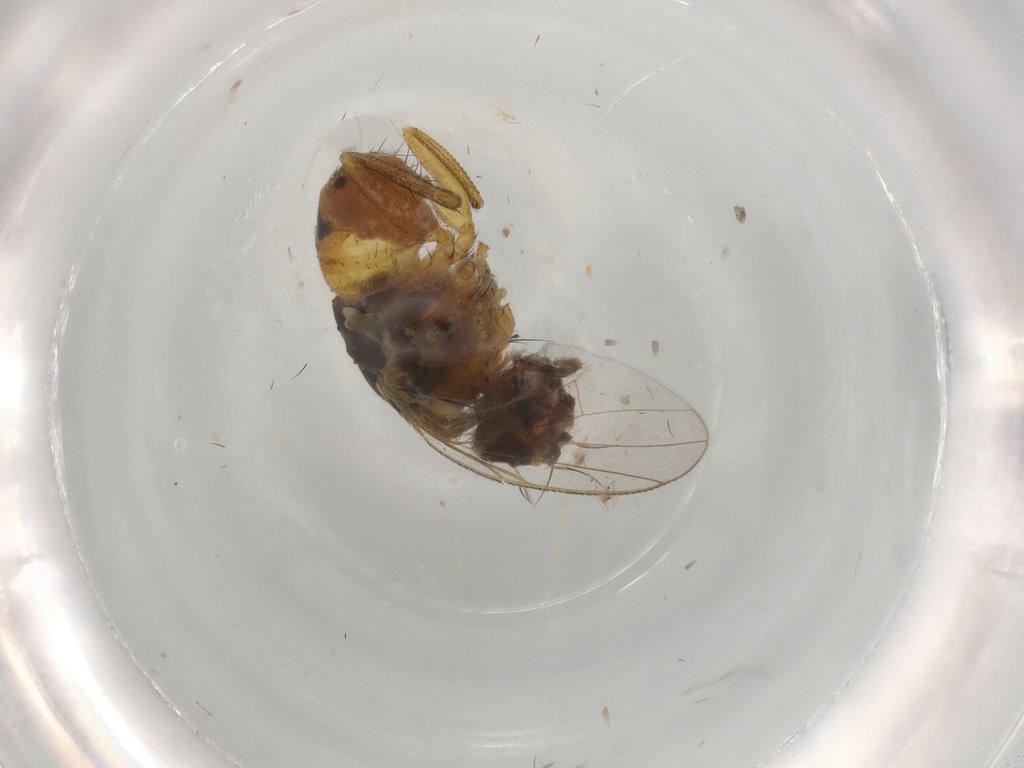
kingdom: Animalia
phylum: Arthropoda
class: Insecta
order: Diptera
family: Muscidae
